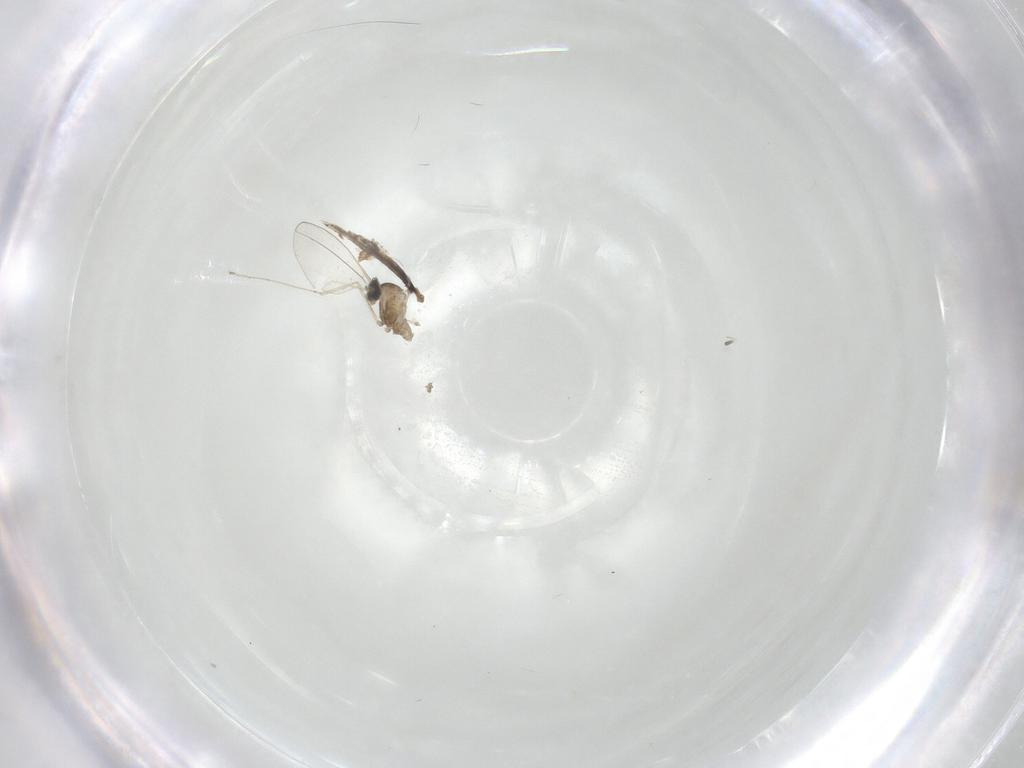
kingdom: Animalia
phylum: Arthropoda
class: Insecta
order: Diptera
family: Cecidomyiidae
